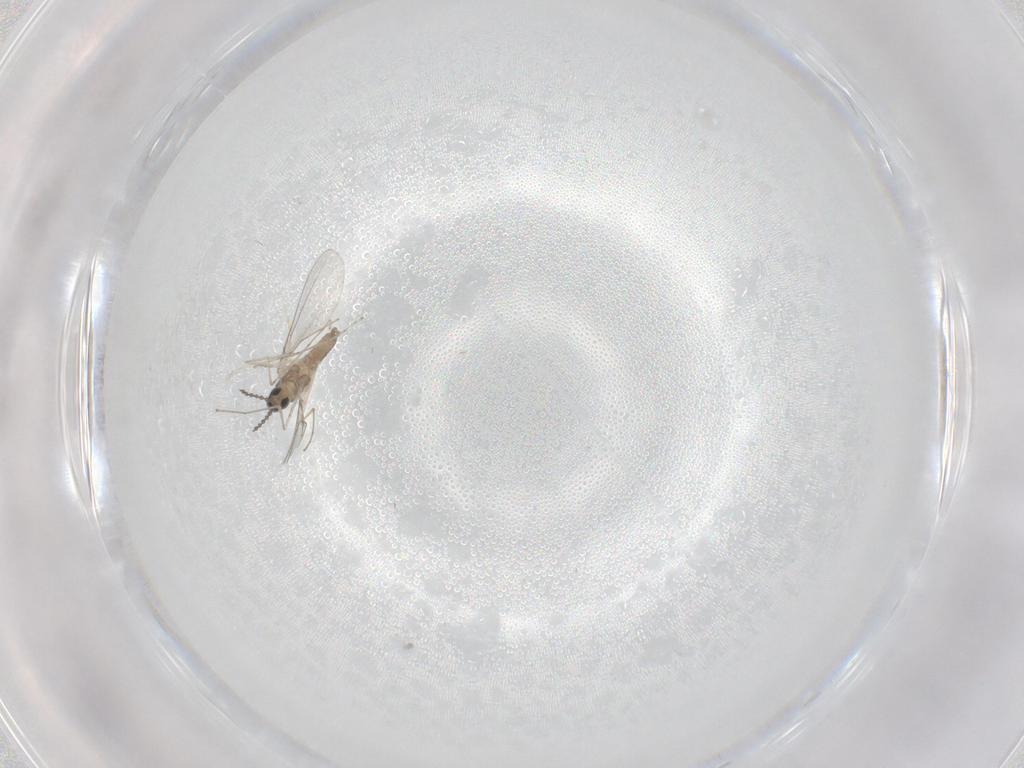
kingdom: Animalia
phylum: Arthropoda
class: Insecta
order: Diptera
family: Cecidomyiidae
